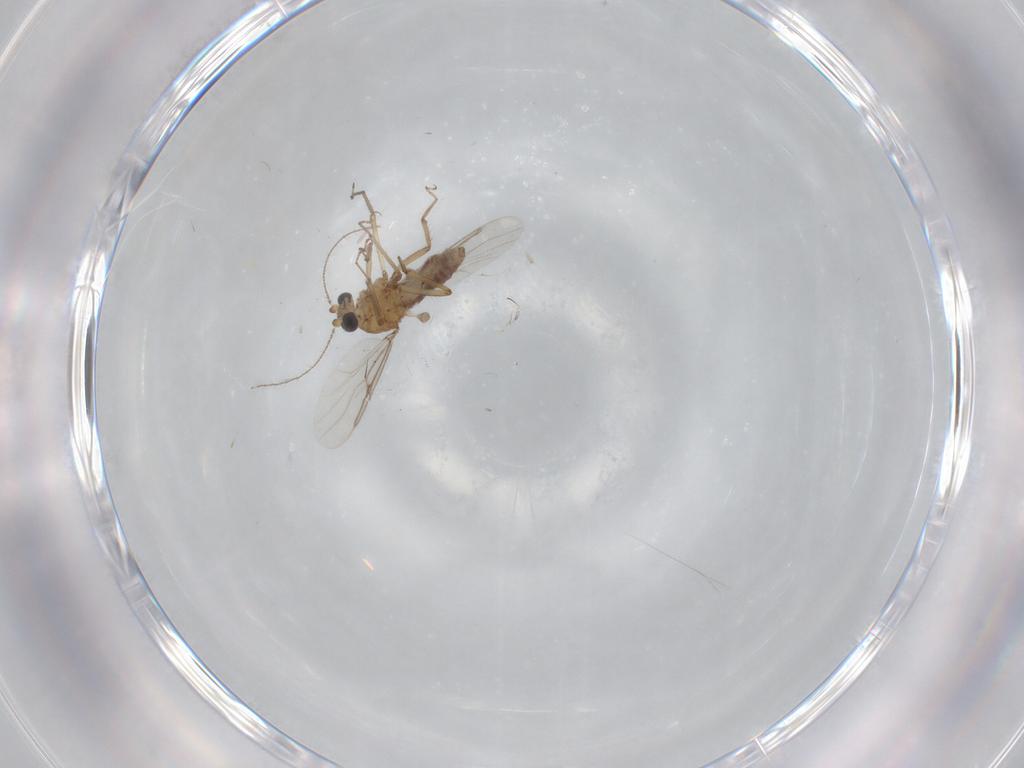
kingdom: Animalia
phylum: Arthropoda
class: Insecta
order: Diptera
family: Ceratopogonidae
